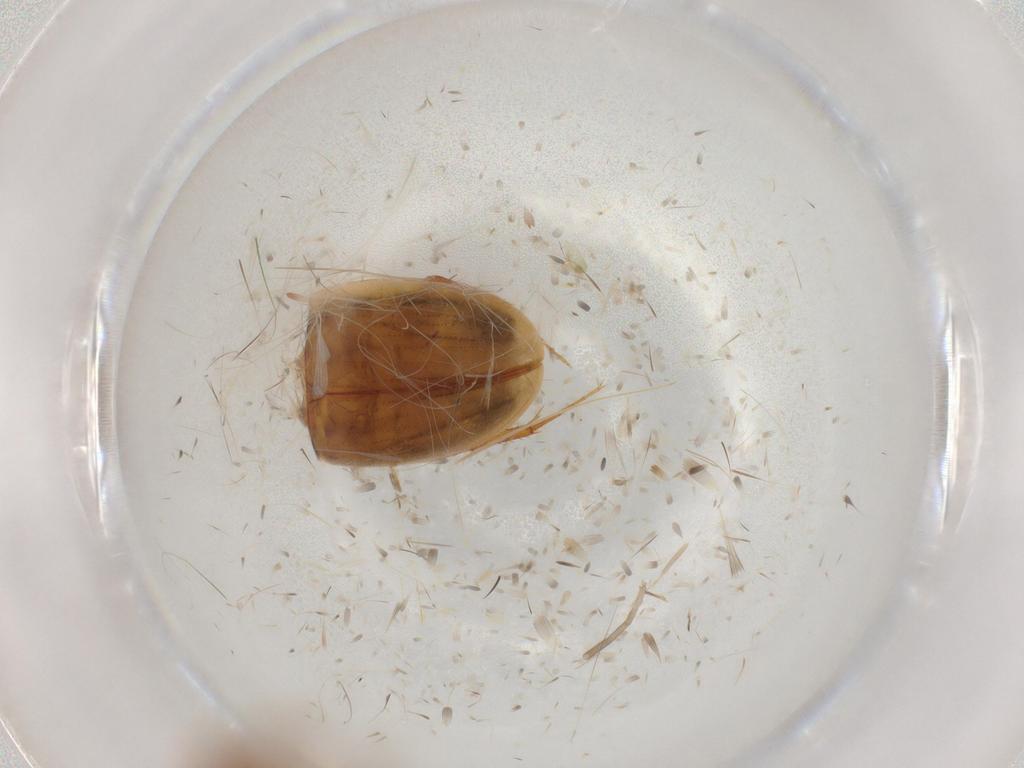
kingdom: Animalia
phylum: Arthropoda
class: Insecta
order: Coleoptera
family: Hydrophilidae
